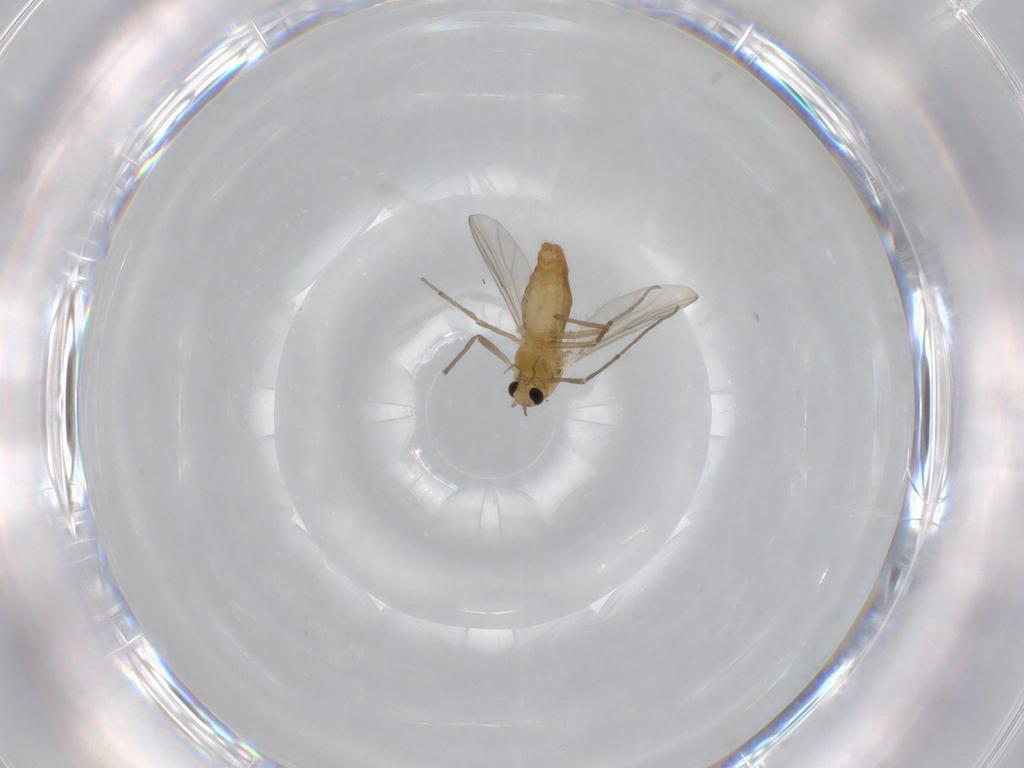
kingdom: Animalia
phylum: Arthropoda
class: Insecta
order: Diptera
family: Chironomidae
